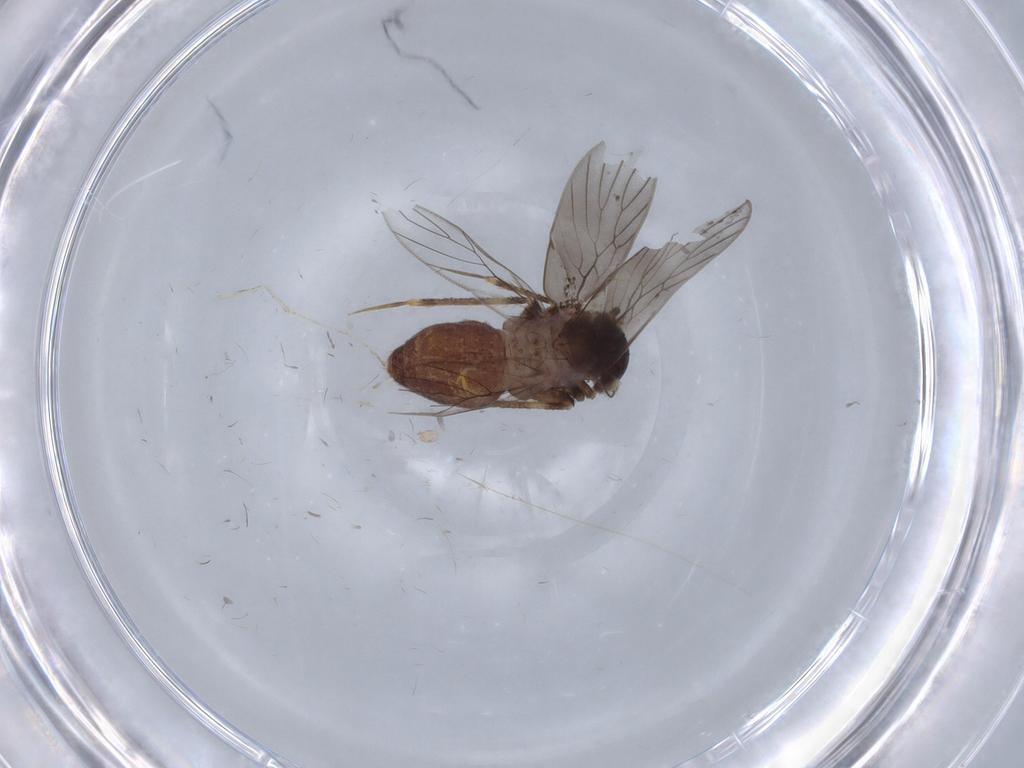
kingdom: Animalia
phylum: Arthropoda
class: Insecta
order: Psocodea
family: Lepidopsocidae
